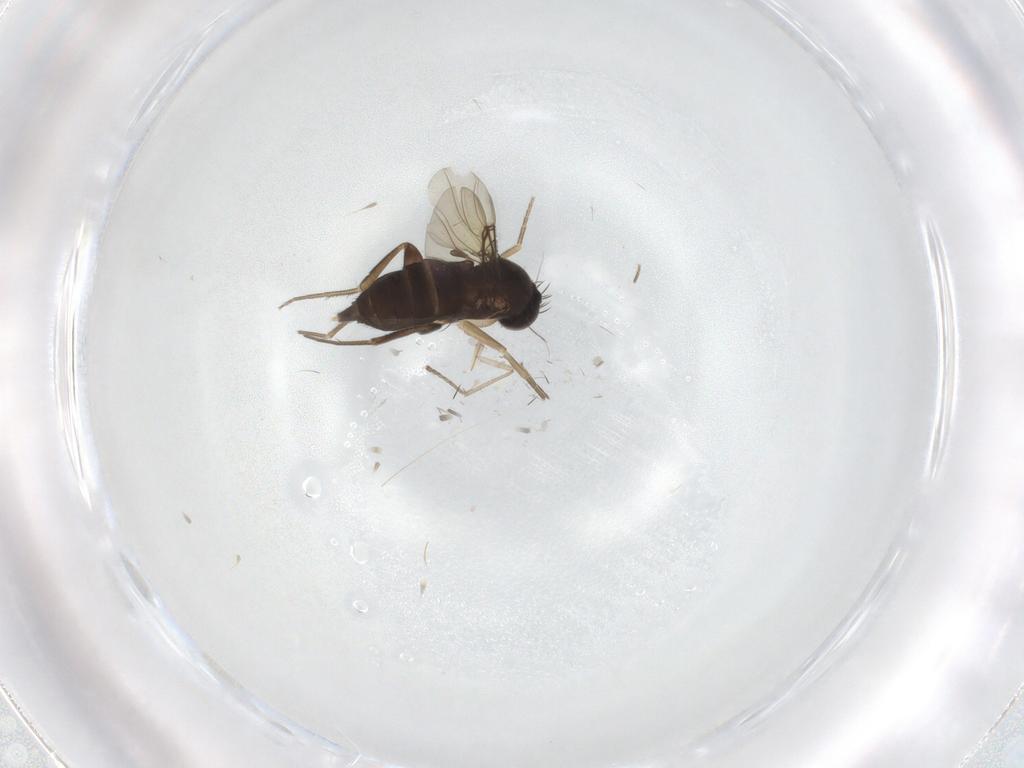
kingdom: Animalia
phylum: Arthropoda
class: Insecta
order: Diptera
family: Phoridae
